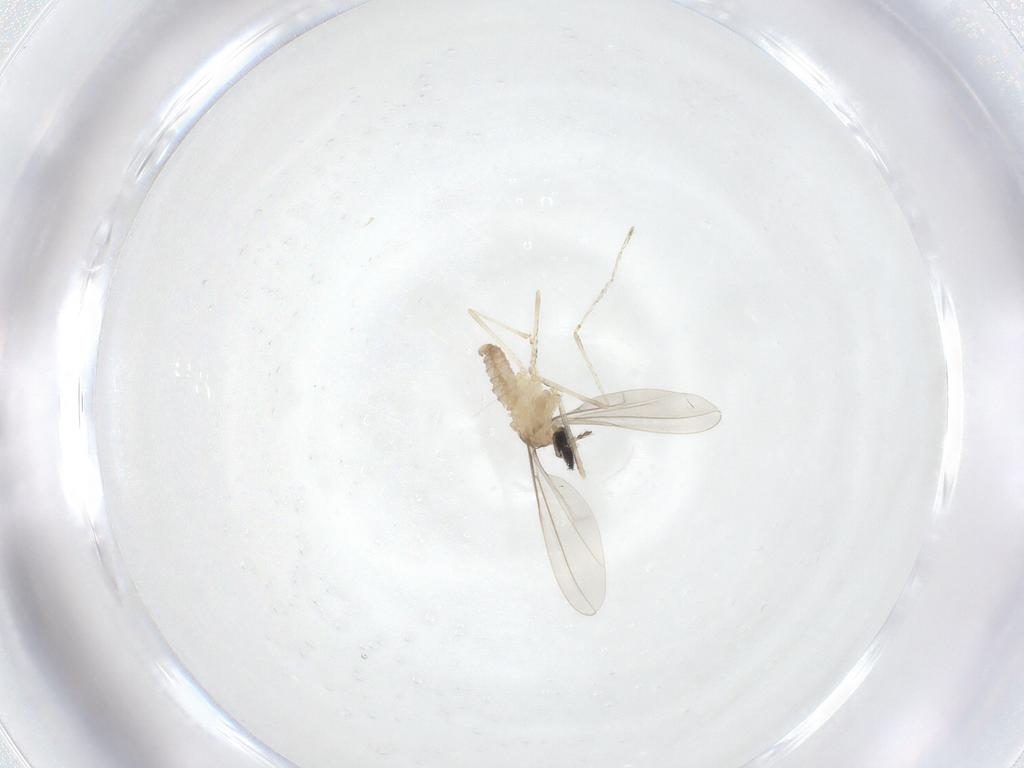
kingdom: Animalia
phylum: Arthropoda
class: Insecta
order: Diptera
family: Cecidomyiidae
